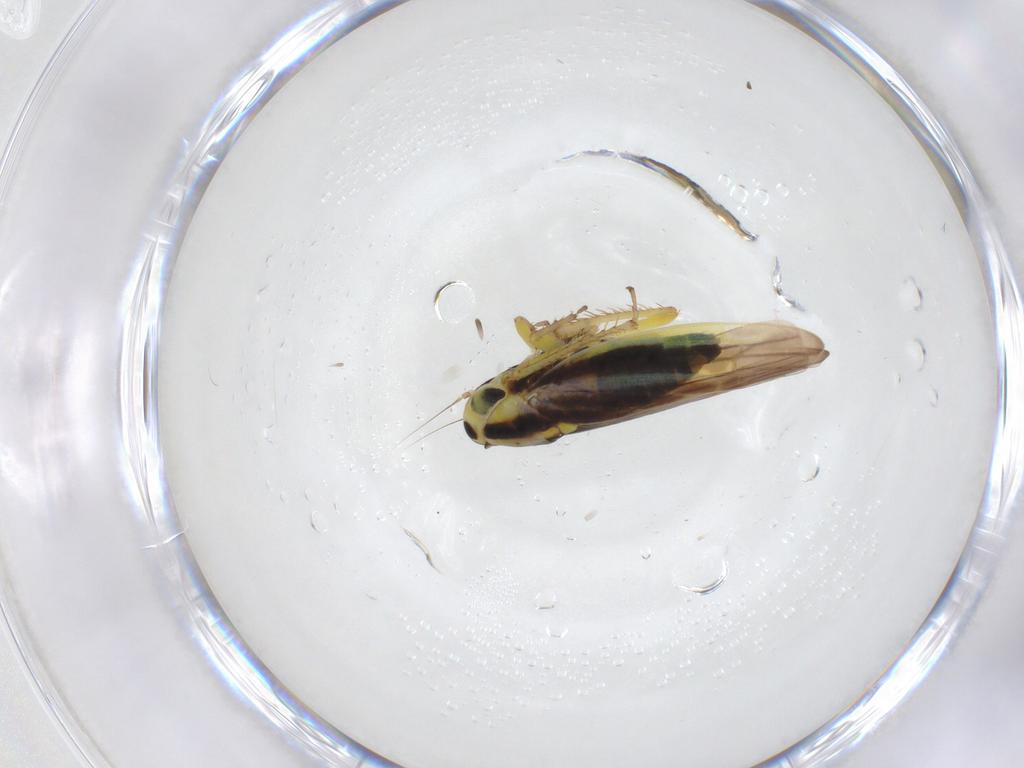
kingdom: Animalia
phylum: Arthropoda
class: Insecta
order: Hemiptera
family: Cicadellidae
